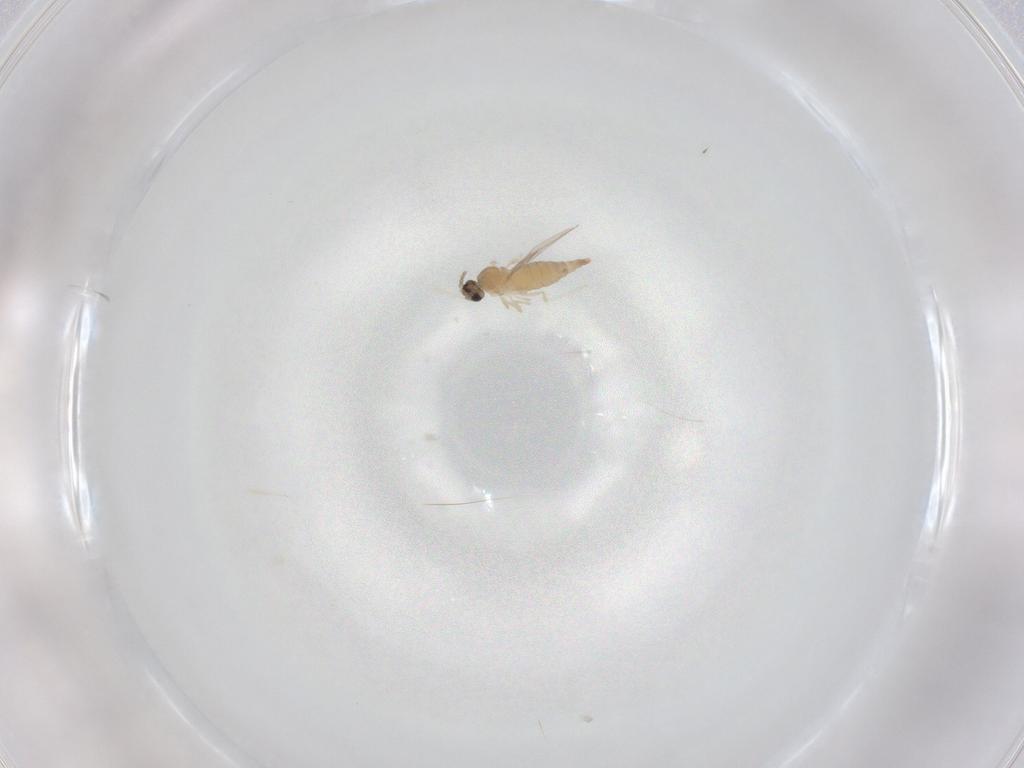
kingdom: Animalia
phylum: Arthropoda
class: Insecta
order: Diptera
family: Cecidomyiidae
